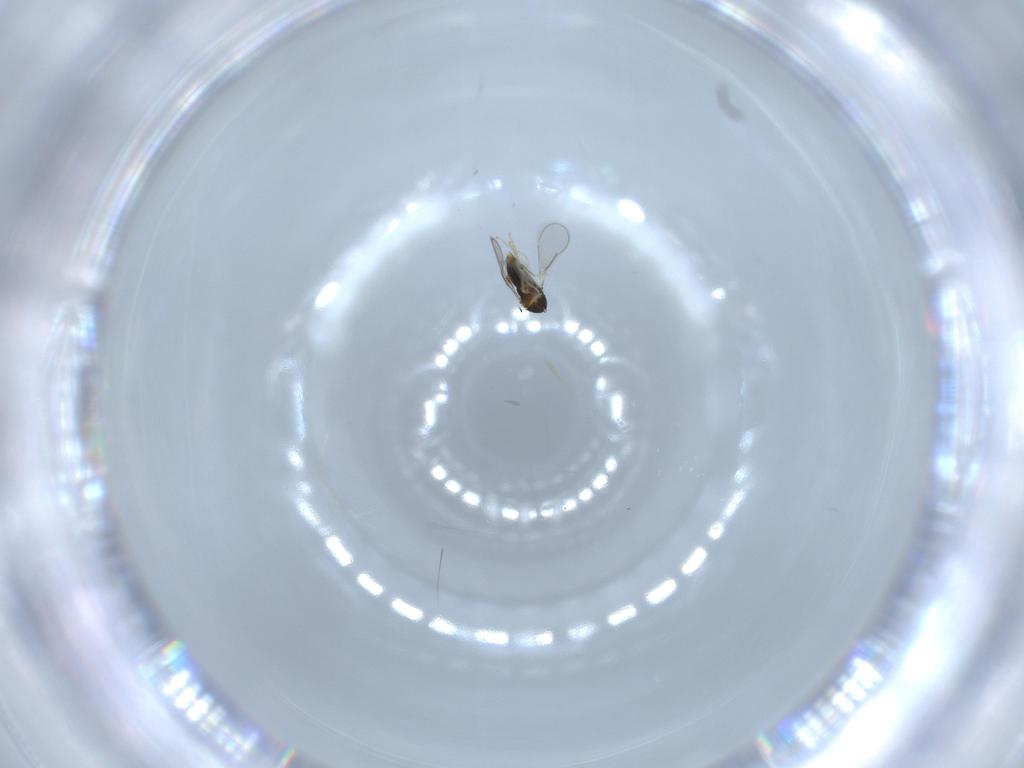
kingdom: Animalia
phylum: Arthropoda
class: Insecta
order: Hymenoptera
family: Aphelinidae
